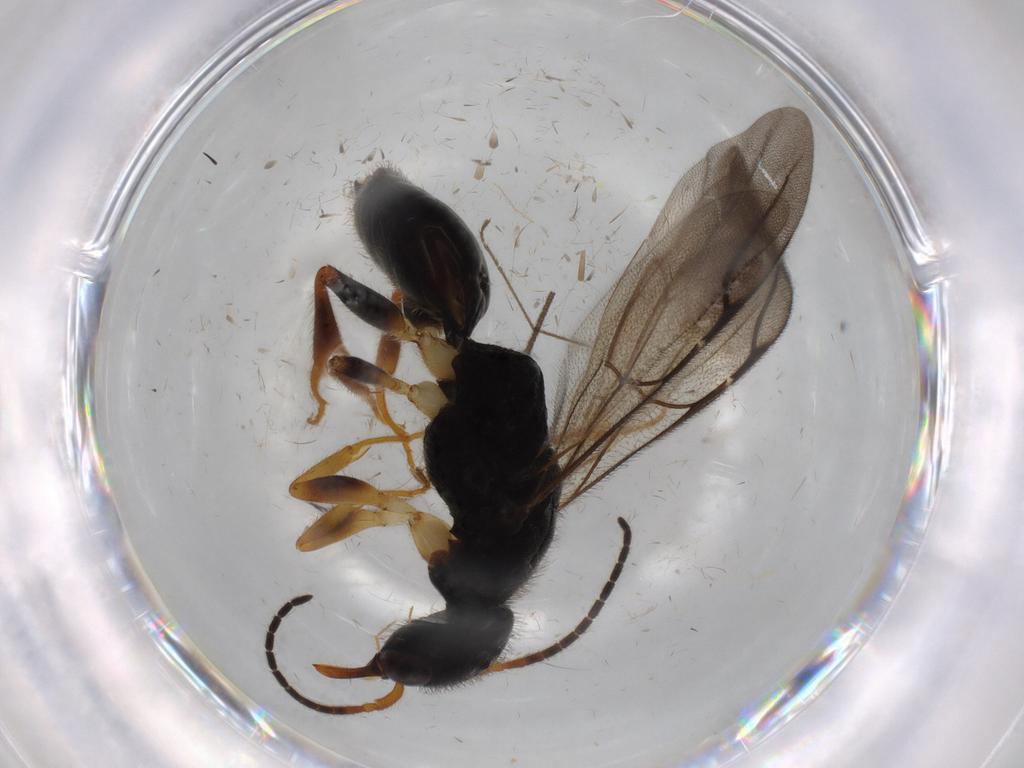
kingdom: Animalia
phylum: Arthropoda
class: Insecta
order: Hymenoptera
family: Bethylidae
